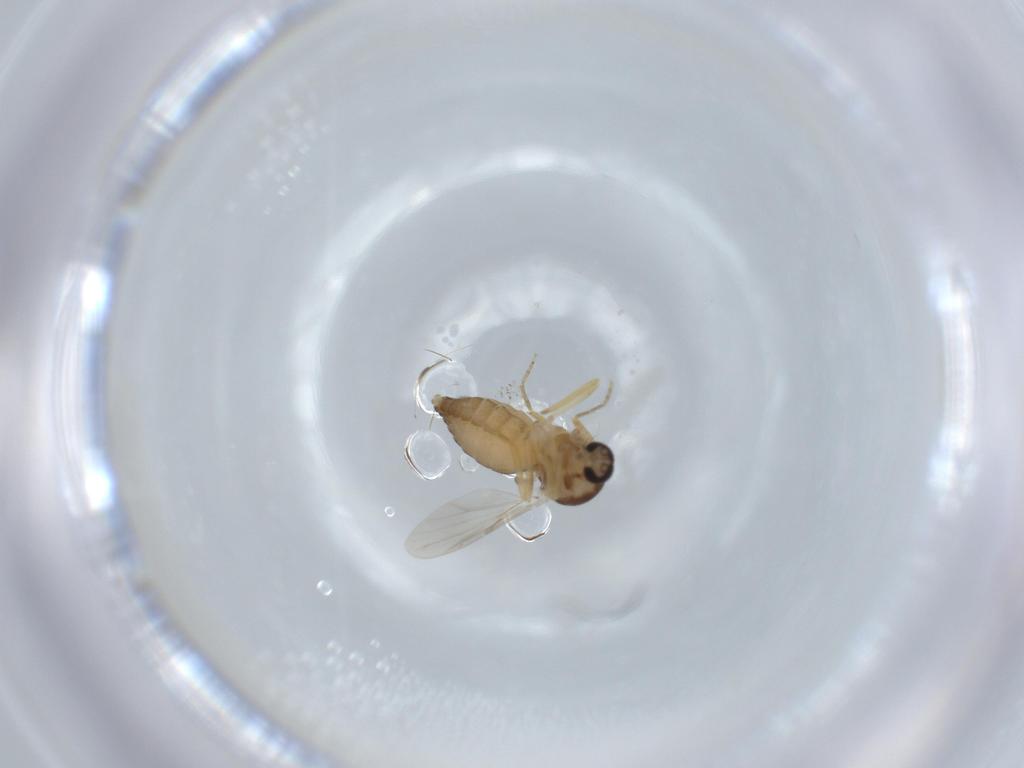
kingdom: Animalia
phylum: Arthropoda
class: Insecta
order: Diptera
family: Ceratopogonidae
